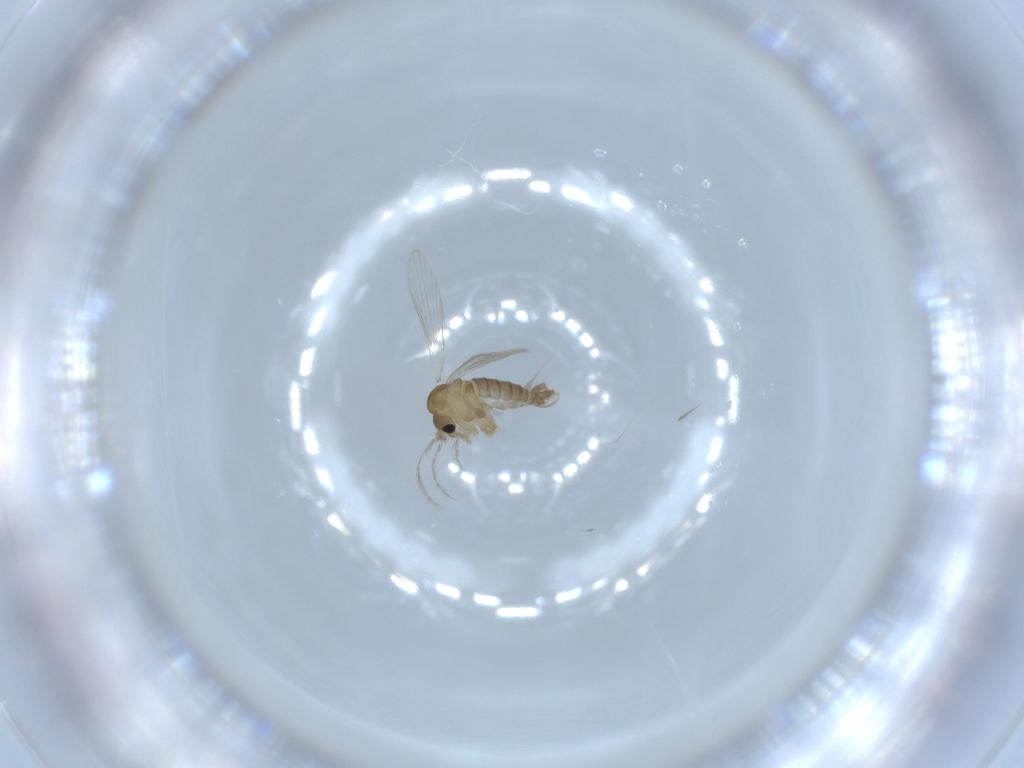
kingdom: Animalia
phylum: Arthropoda
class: Insecta
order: Diptera
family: Psychodidae
